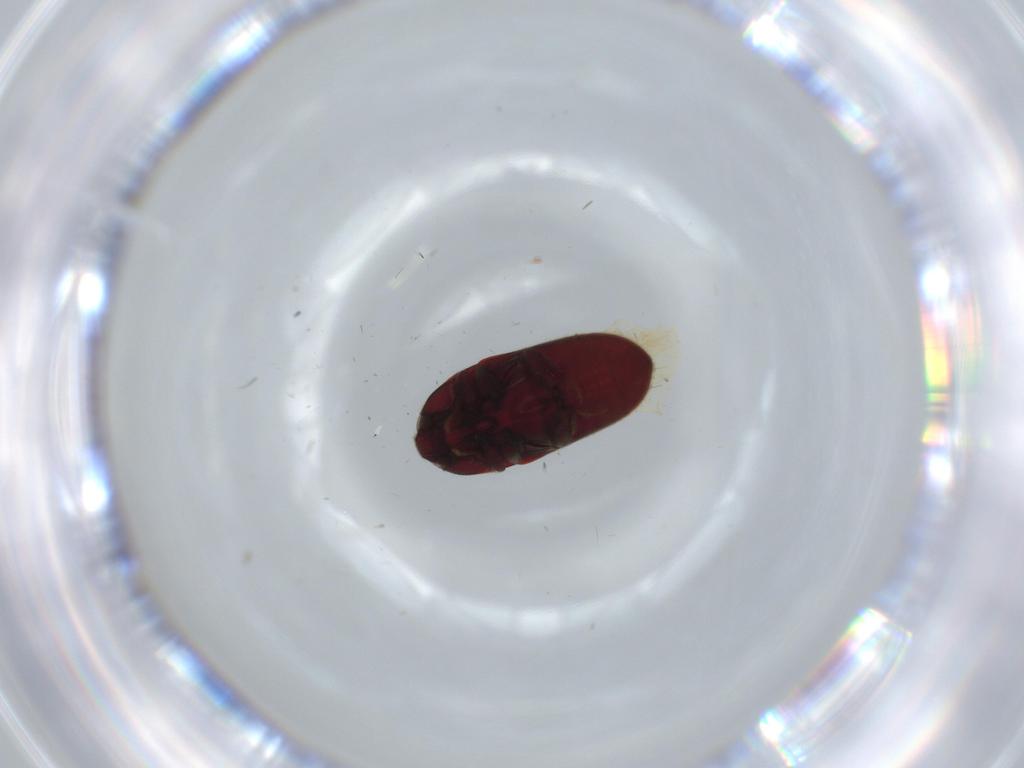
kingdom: Animalia
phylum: Arthropoda
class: Insecta
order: Coleoptera
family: Throscidae
